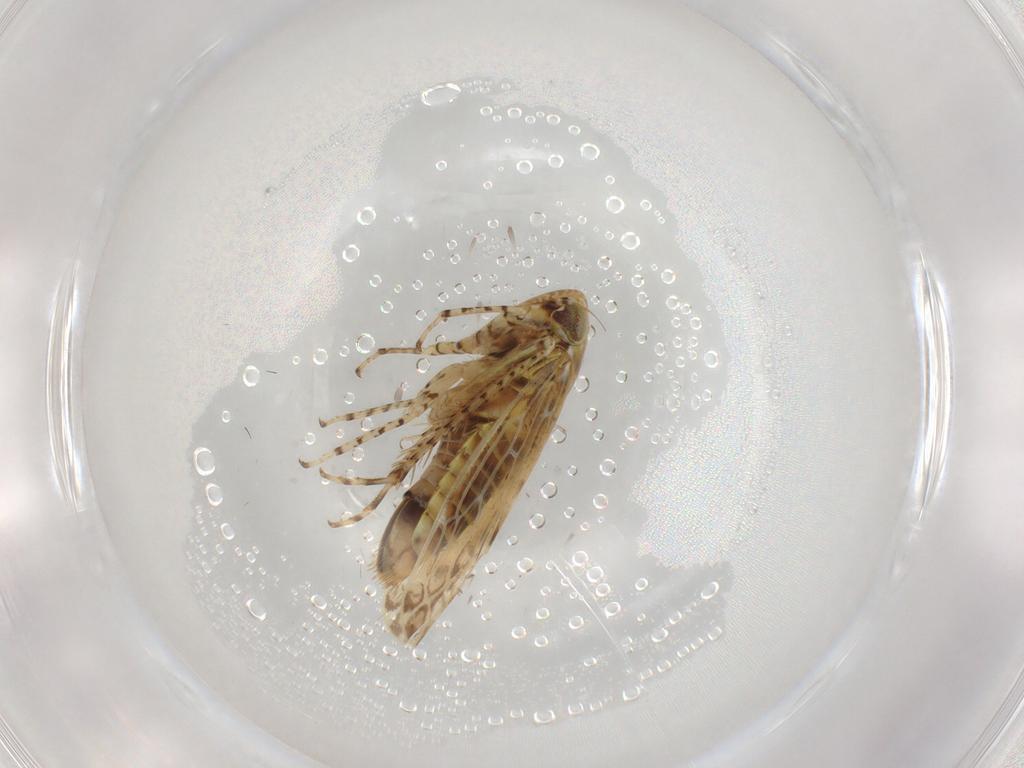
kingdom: Animalia
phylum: Arthropoda
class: Insecta
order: Hemiptera
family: Cicadellidae
